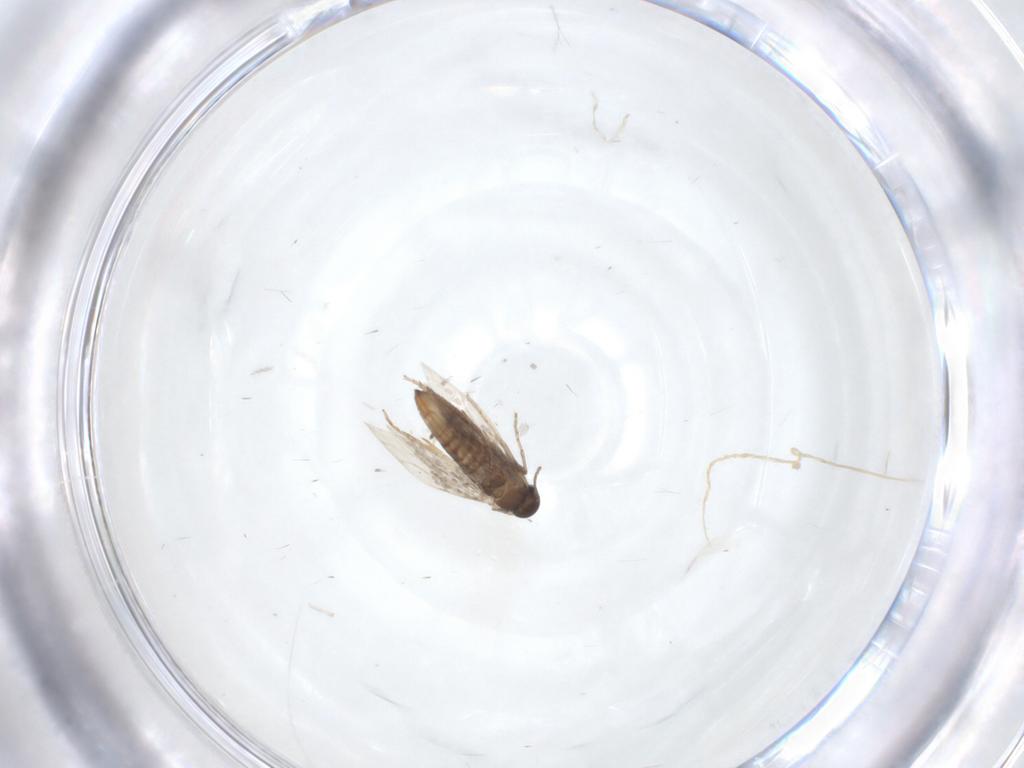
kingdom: Animalia
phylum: Arthropoda
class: Insecta
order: Lepidoptera
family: Heliozelidae
